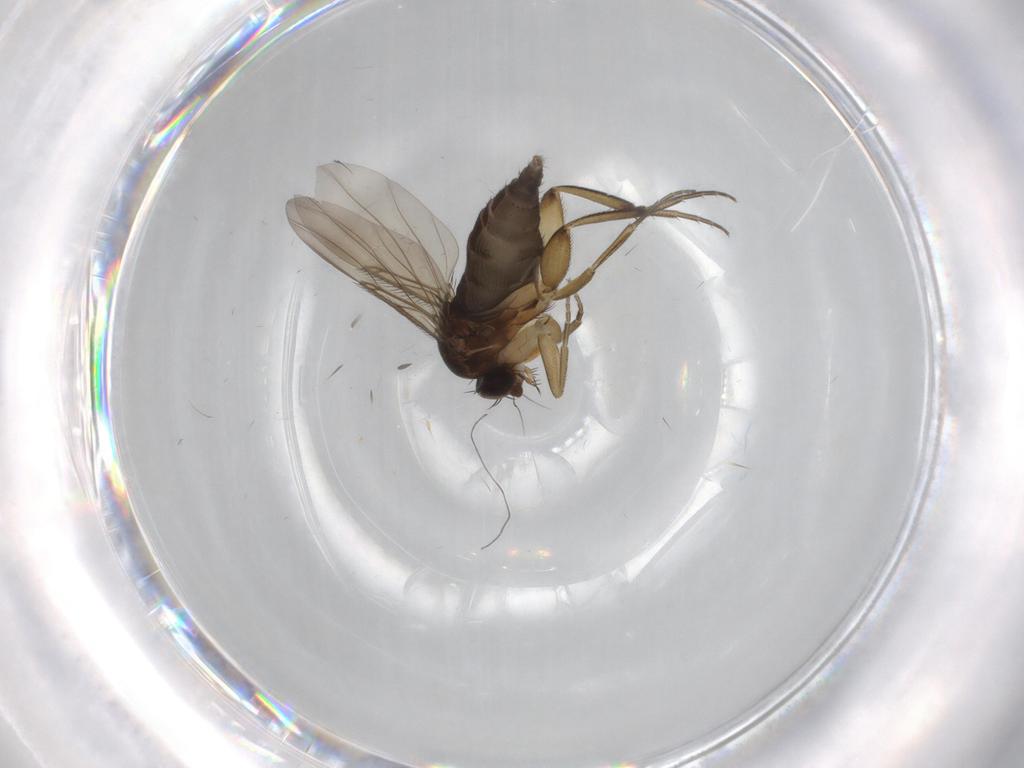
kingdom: Animalia
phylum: Arthropoda
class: Insecta
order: Diptera
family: Phoridae
